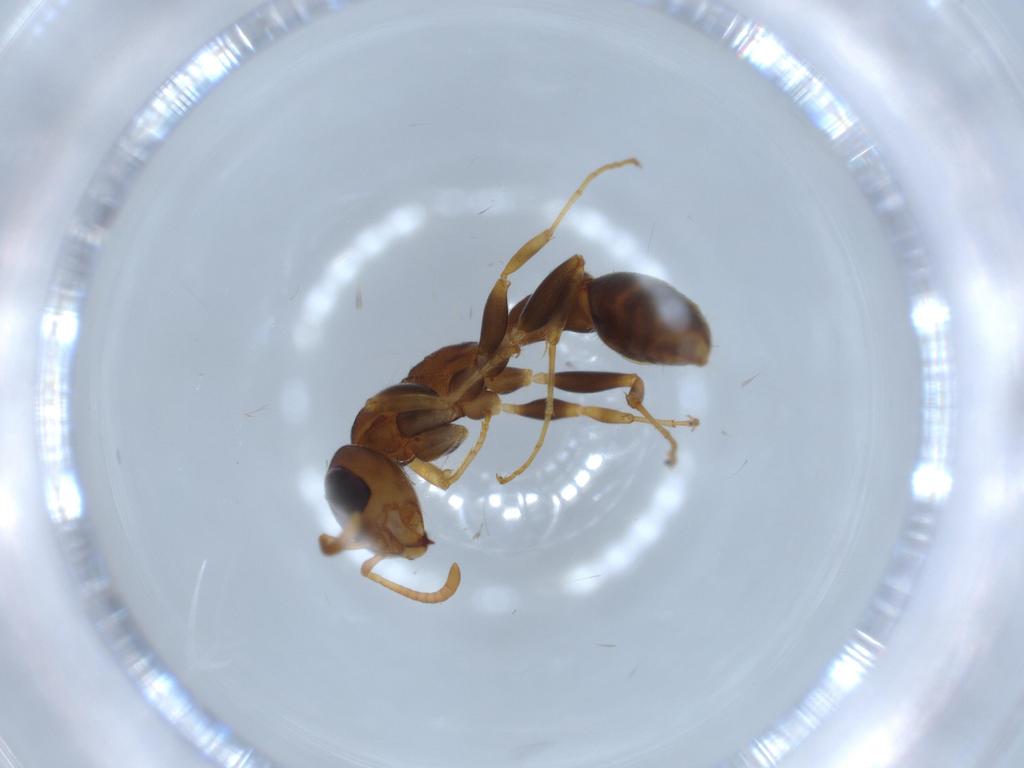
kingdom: Animalia
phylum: Arthropoda
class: Insecta
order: Hymenoptera
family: Formicidae
